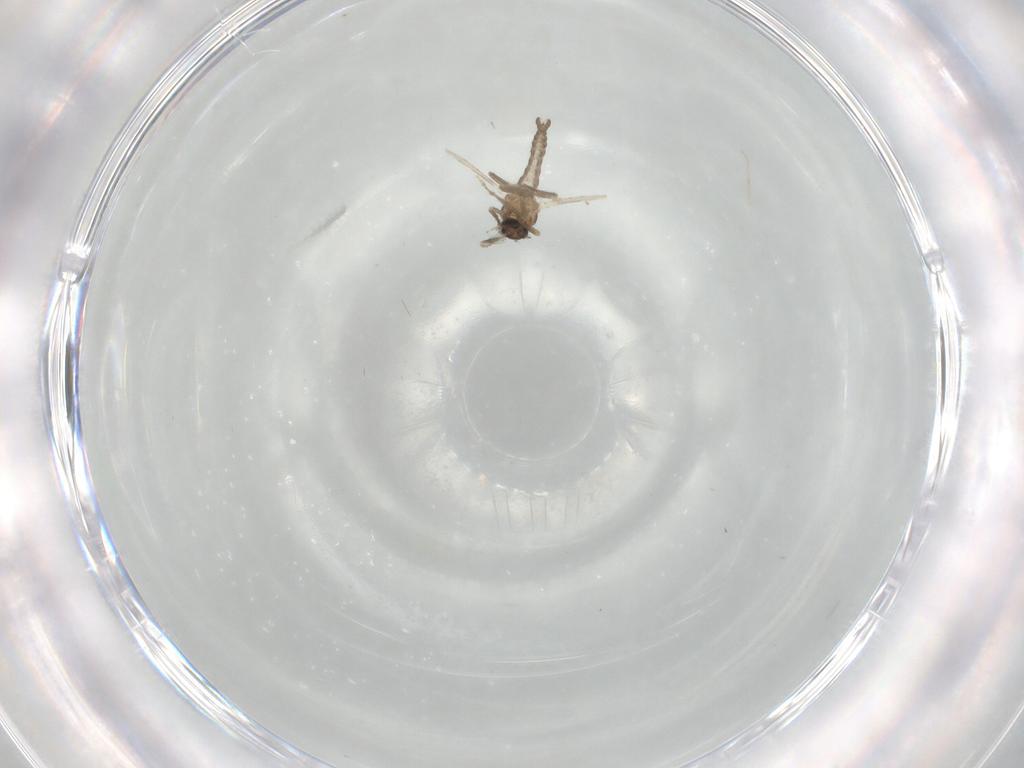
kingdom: Animalia
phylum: Arthropoda
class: Insecta
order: Diptera
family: Ceratopogonidae
